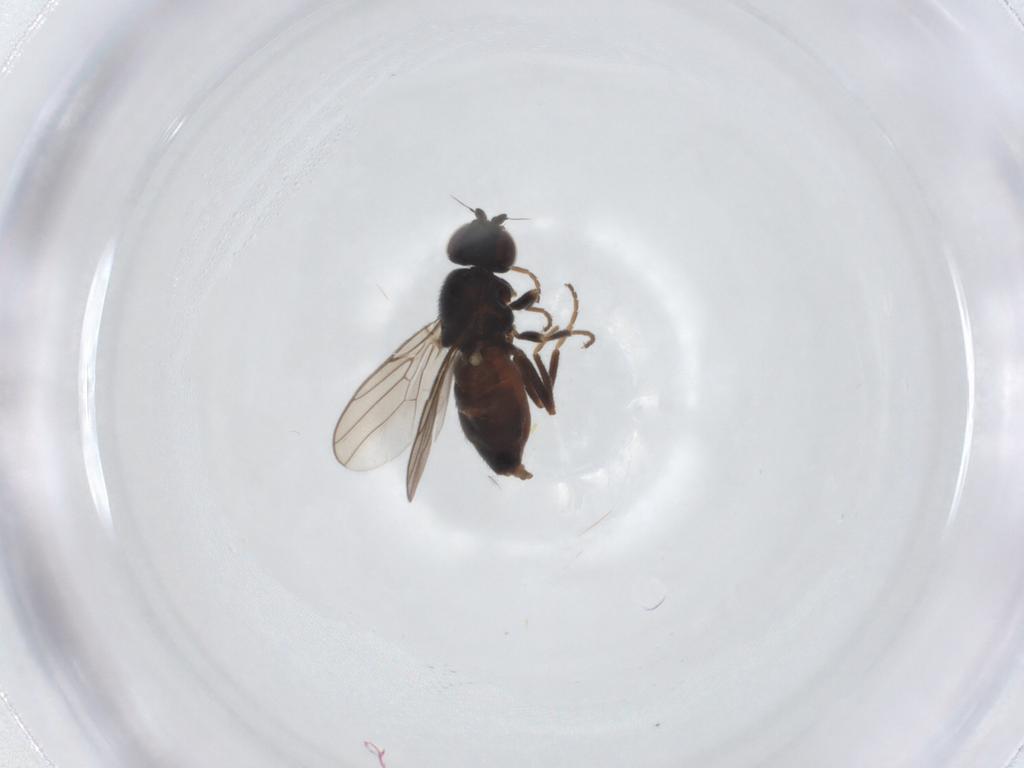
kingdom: Animalia
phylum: Arthropoda
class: Insecta
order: Diptera
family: Chloropidae
